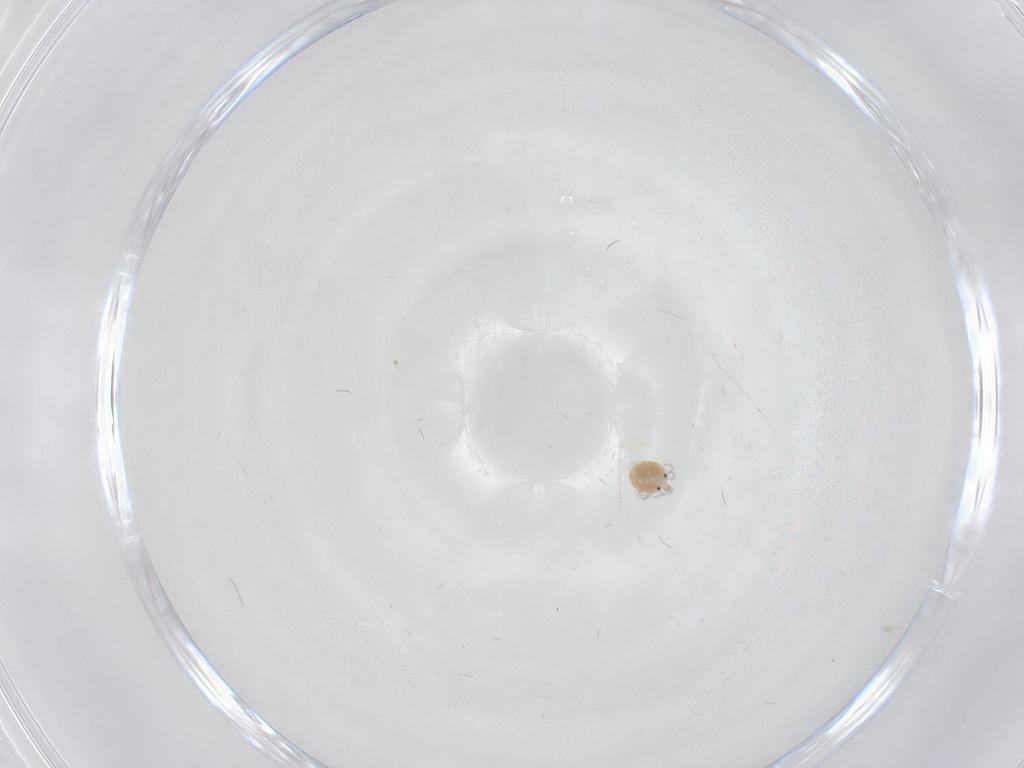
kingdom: Animalia
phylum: Arthropoda
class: Arachnida
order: Trombidiformes
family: Pionidae
